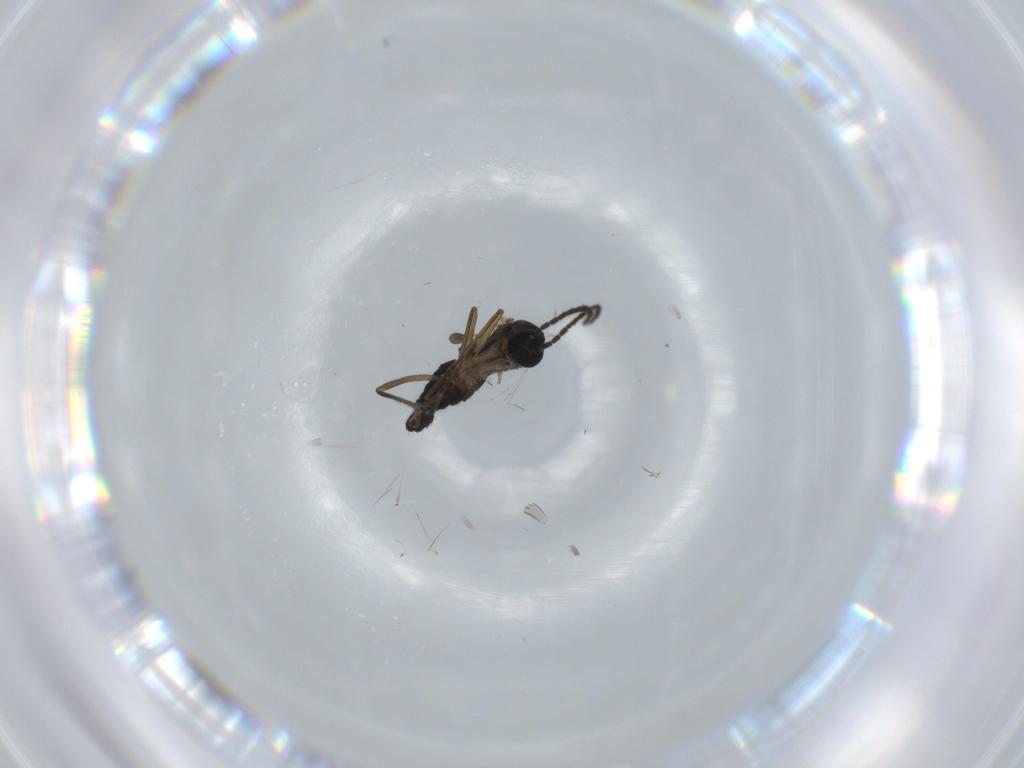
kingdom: Animalia
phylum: Arthropoda
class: Insecta
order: Diptera
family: Sciaridae
